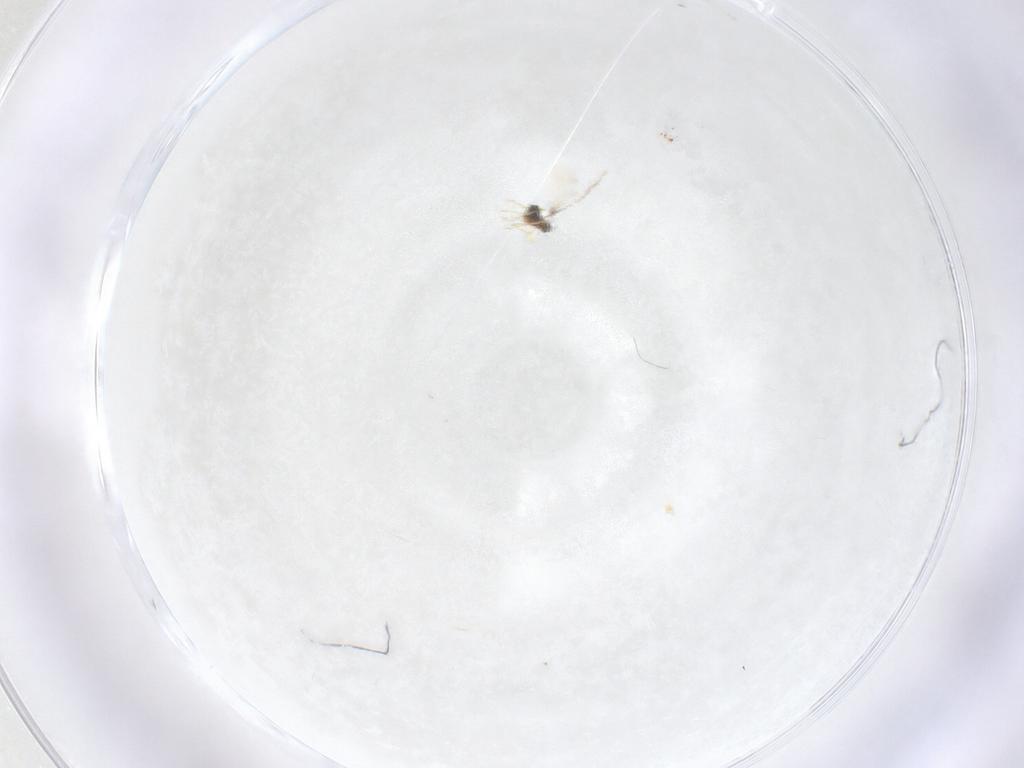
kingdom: Animalia
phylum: Arthropoda
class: Insecta
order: Hymenoptera
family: Mymaridae
